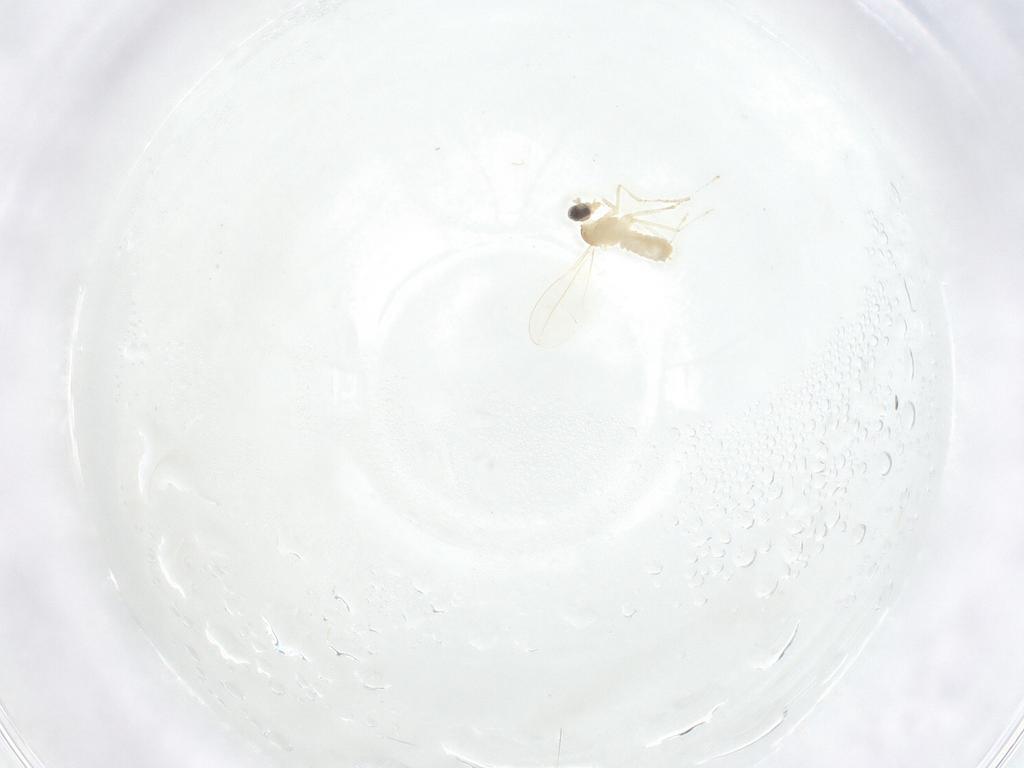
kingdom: Animalia
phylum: Arthropoda
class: Insecta
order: Diptera
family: Cecidomyiidae
